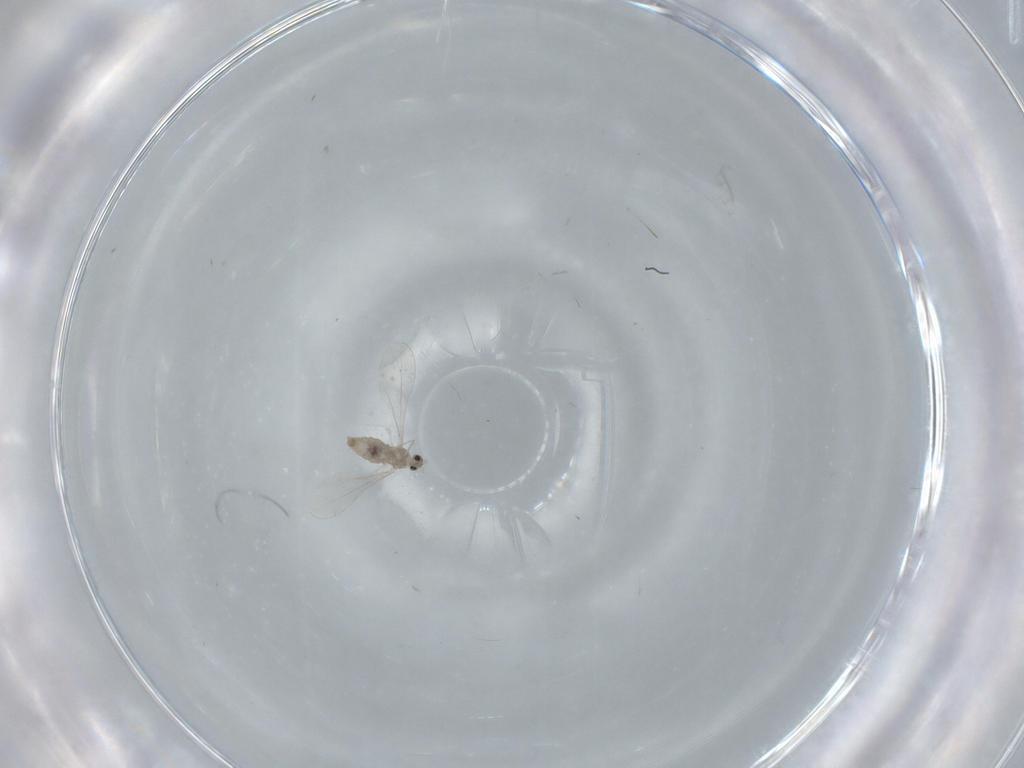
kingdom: Animalia
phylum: Arthropoda
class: Insecta
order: Diptera
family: Cecidomyiidae
